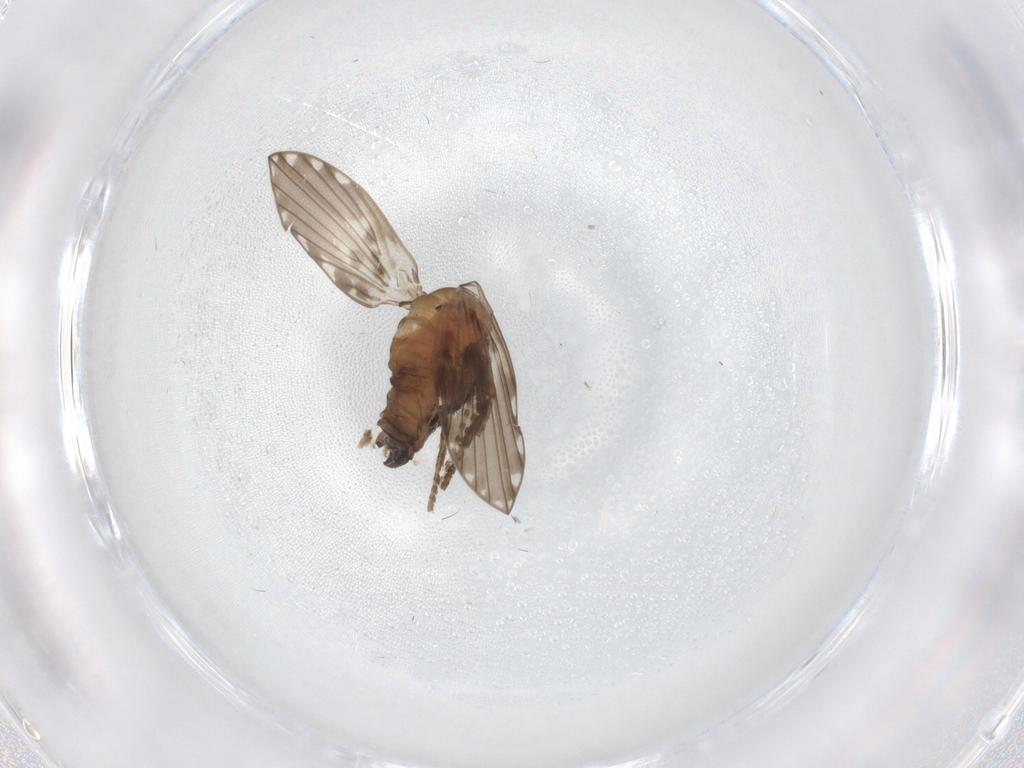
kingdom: Animalia
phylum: Arthropoda
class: Insecta
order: Diptera
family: Psychodidae
